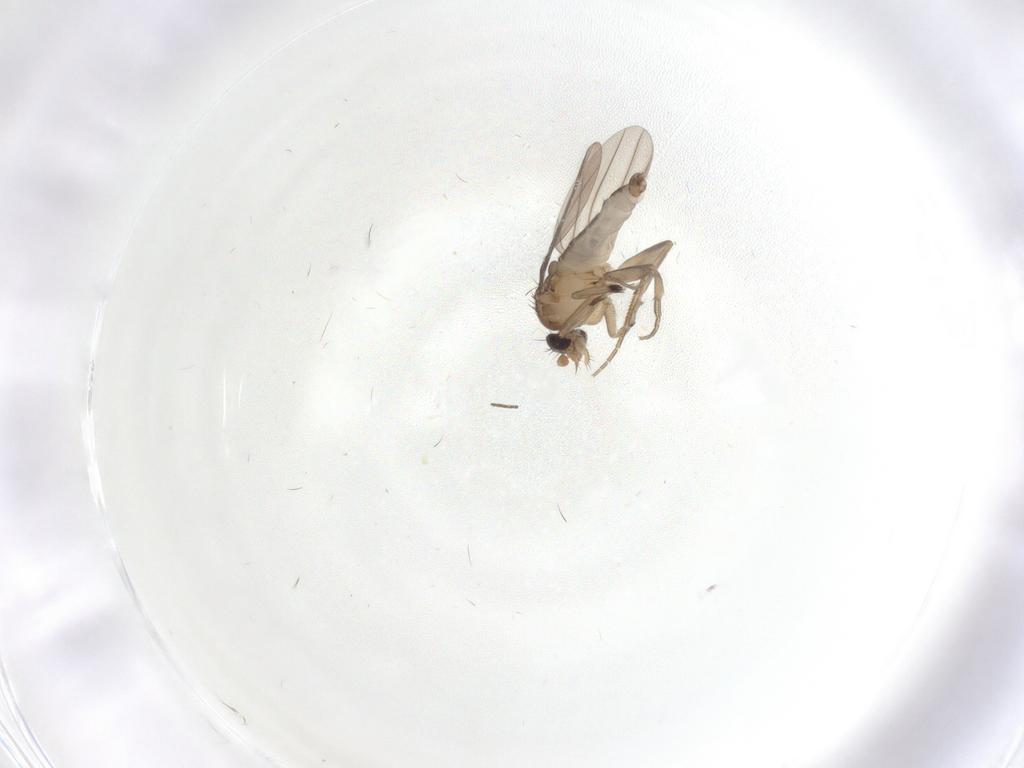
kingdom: Animalia
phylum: Arthropoda
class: Insecta
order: Diptera
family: Phoridae
